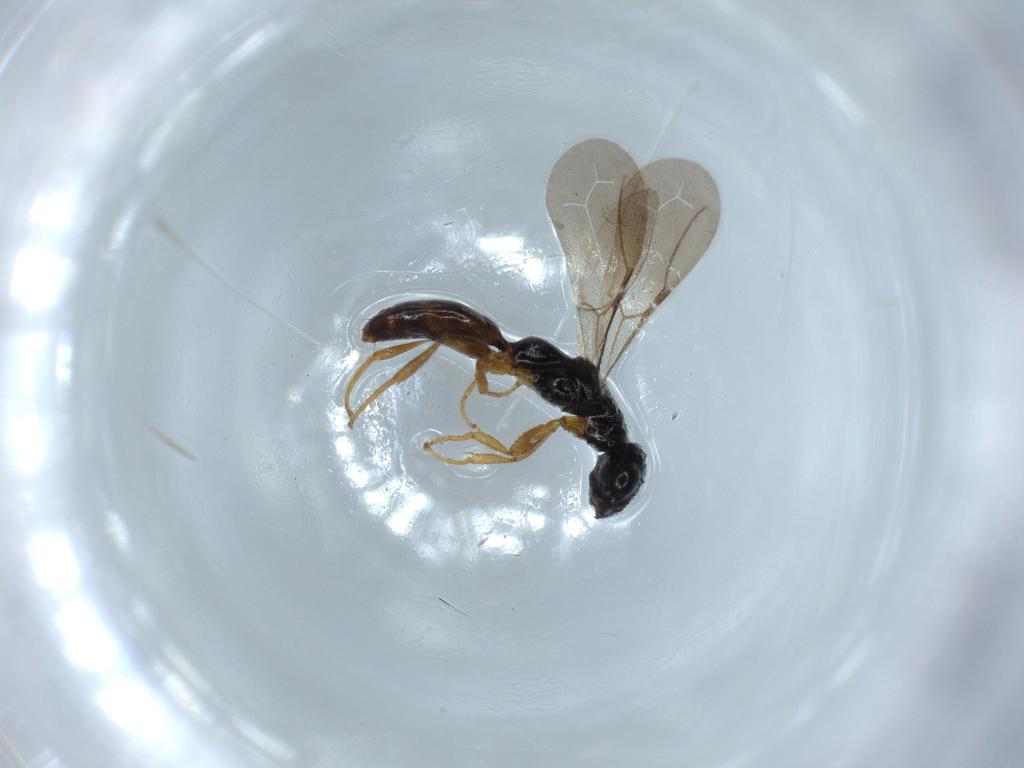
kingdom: Animalia
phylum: Arthropoda
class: Insecta
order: Hymenoptera
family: Bethylidae
